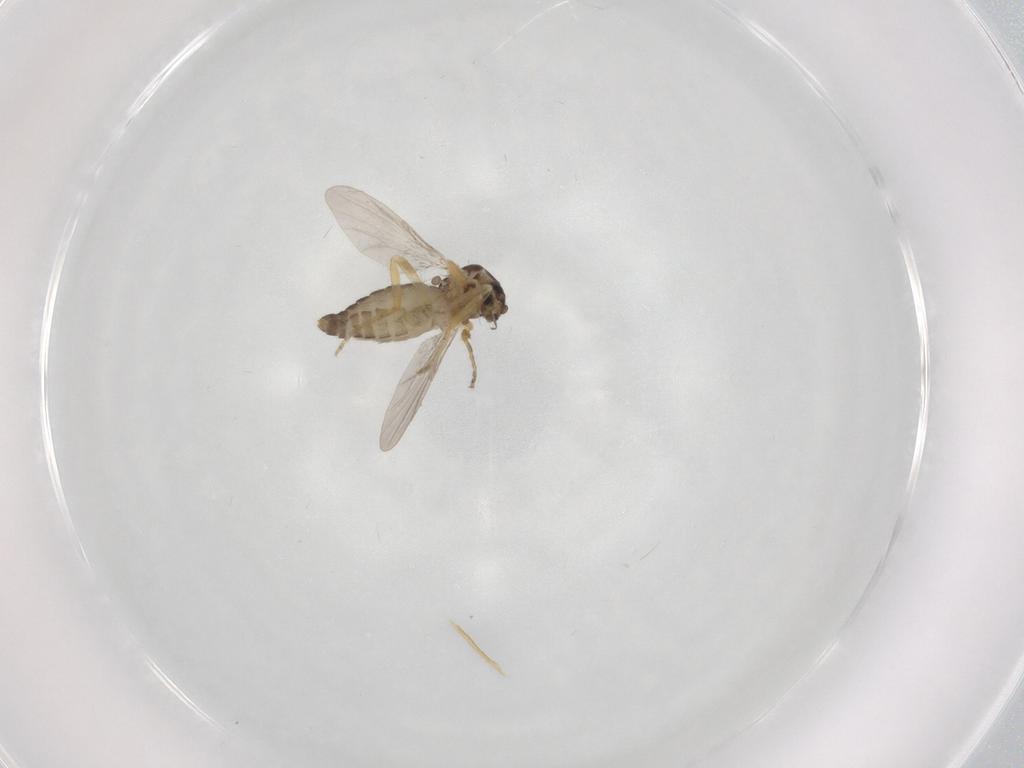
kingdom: Animalia
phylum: Arthropoda
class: Insecta
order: Diptera
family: Ceratopogonidae
